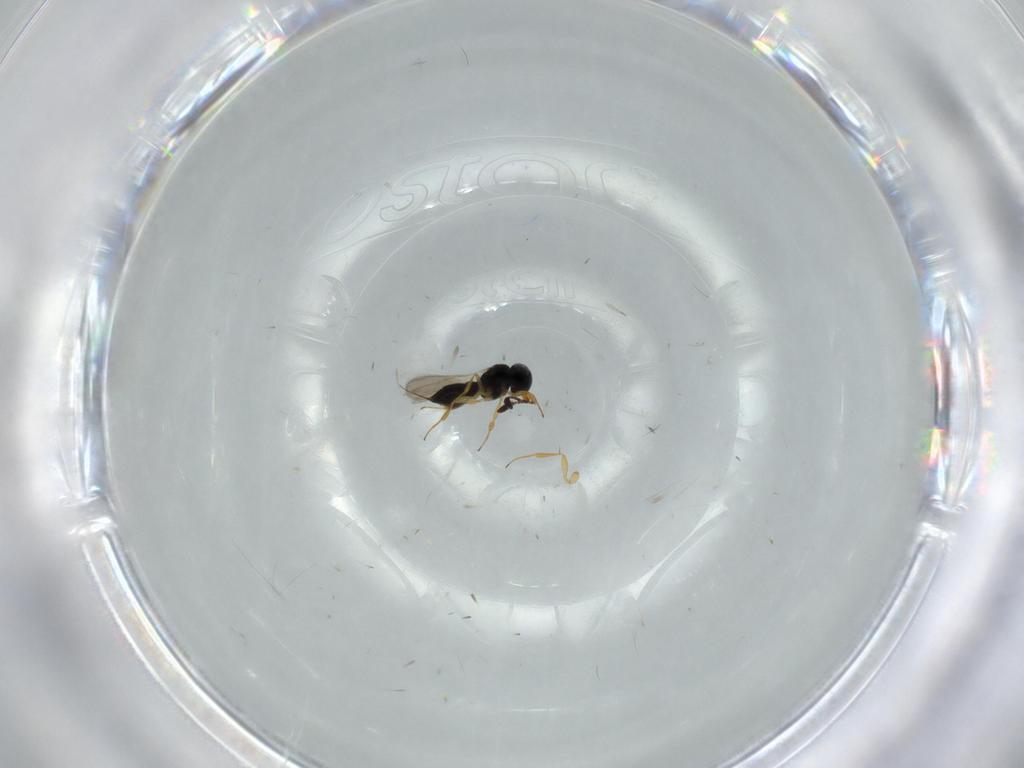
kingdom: Animalia
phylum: Arthropoda
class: Insecta
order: Hymenoptera
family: Scelionidae
